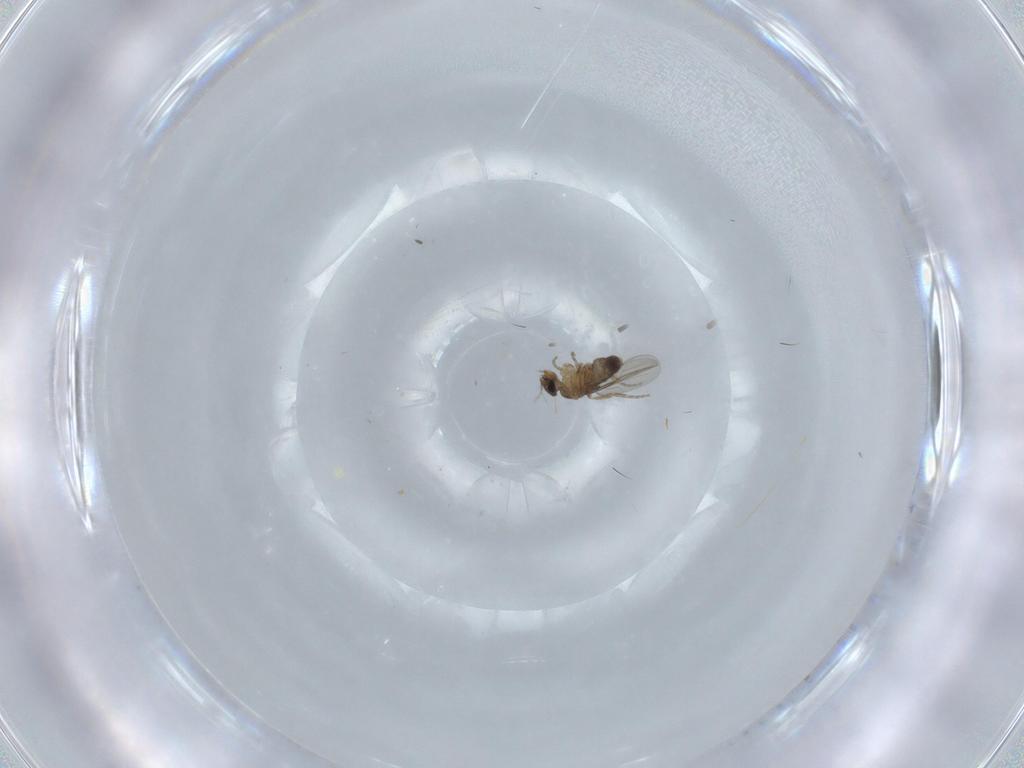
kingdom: Animalia
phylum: Arthropoda
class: Insecta
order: Diptera
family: Phoridae
